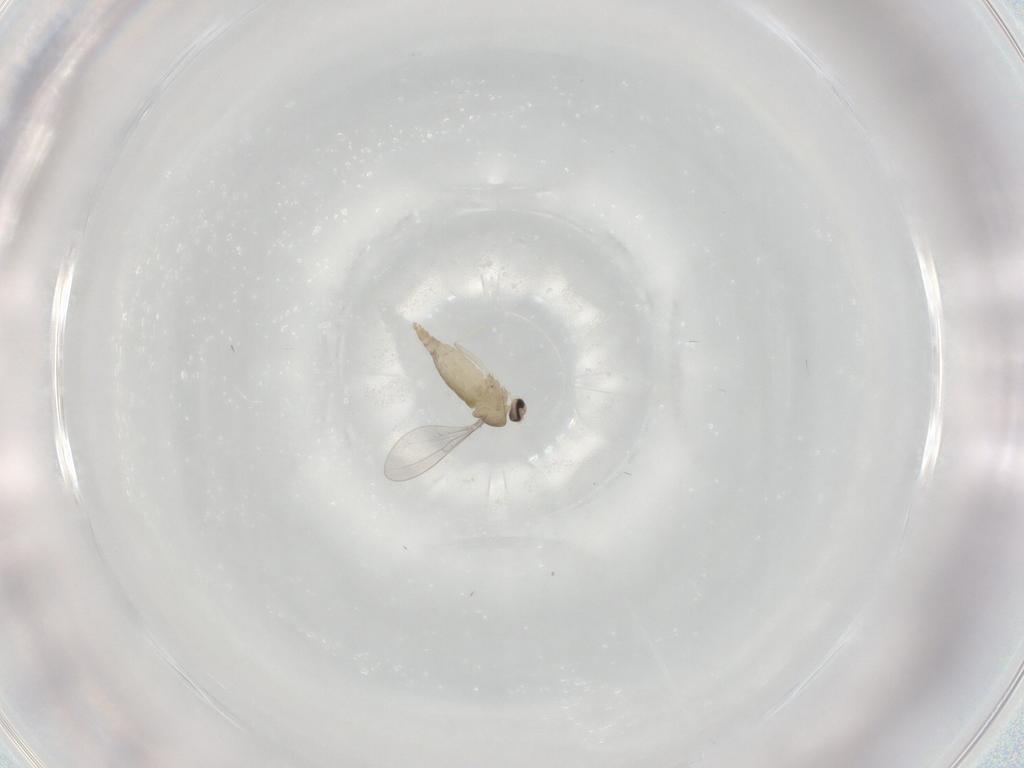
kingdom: Animalia
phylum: Arthropoda
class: Insecta
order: Diptera
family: Cecidomyiidae
